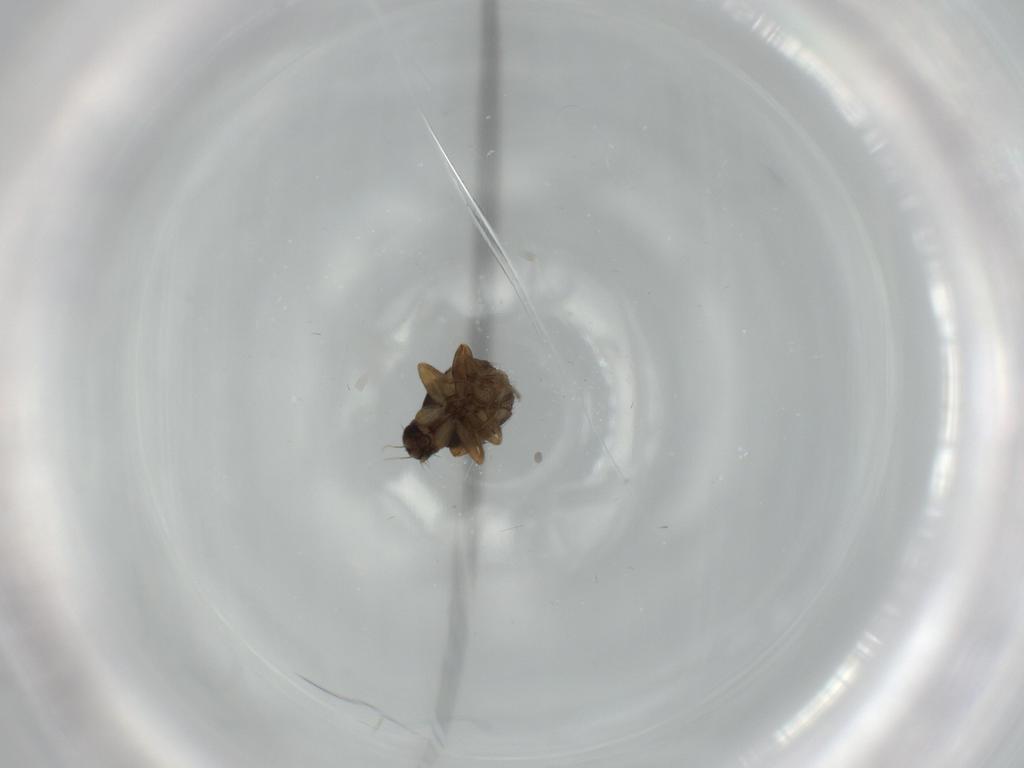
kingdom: Animalia
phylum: Arthropoda
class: Insecta
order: Diptera
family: Phoridae
